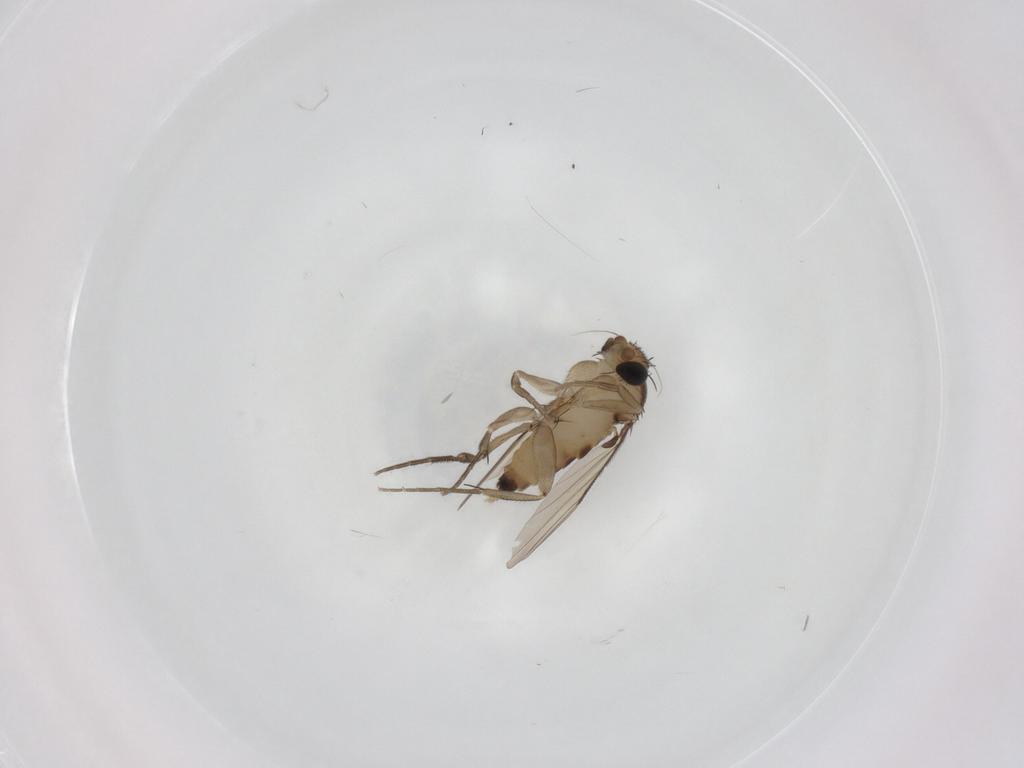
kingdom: Animalia
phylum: Arthropoda
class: Insecta
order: Diptera
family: Phoridae
